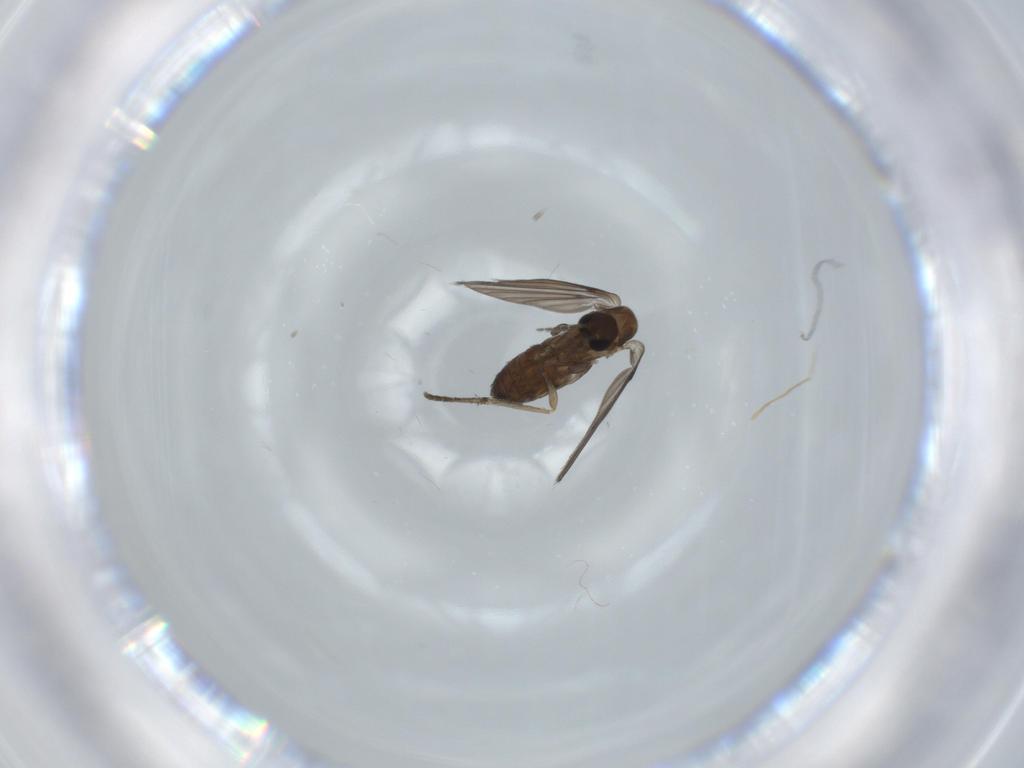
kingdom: Animalia
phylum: Arthropoda
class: Insecta
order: Diptera
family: Psychodidae
